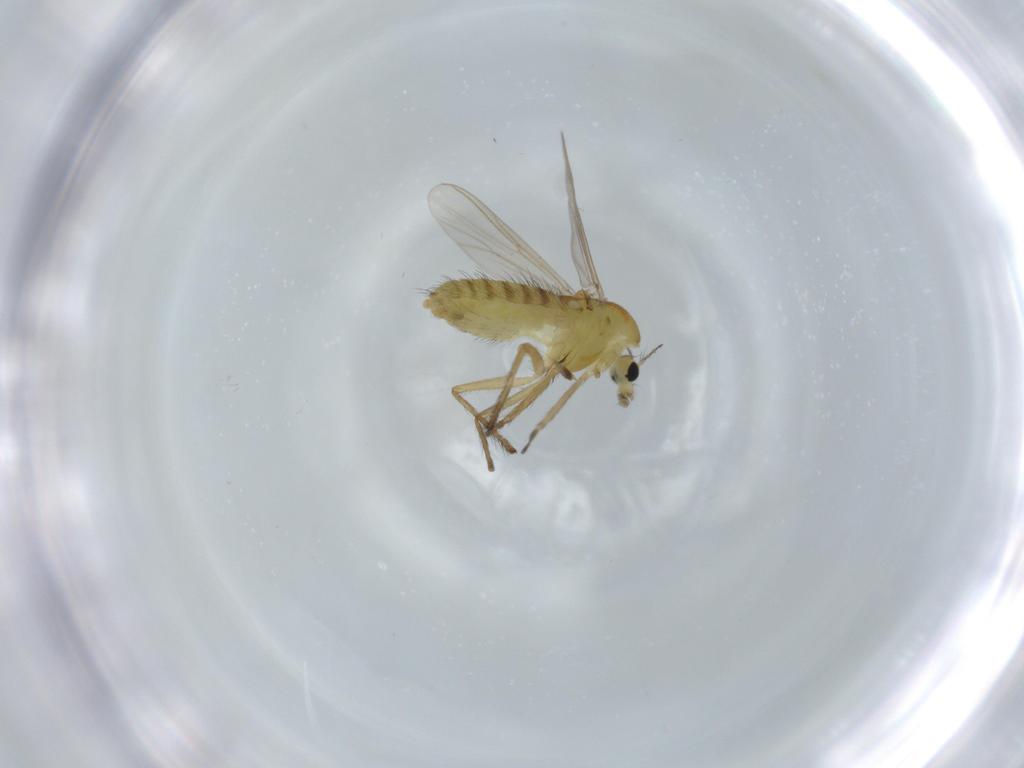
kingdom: Animalia
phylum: Arthropoda
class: Insecta
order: Diptera
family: Chironomidae
